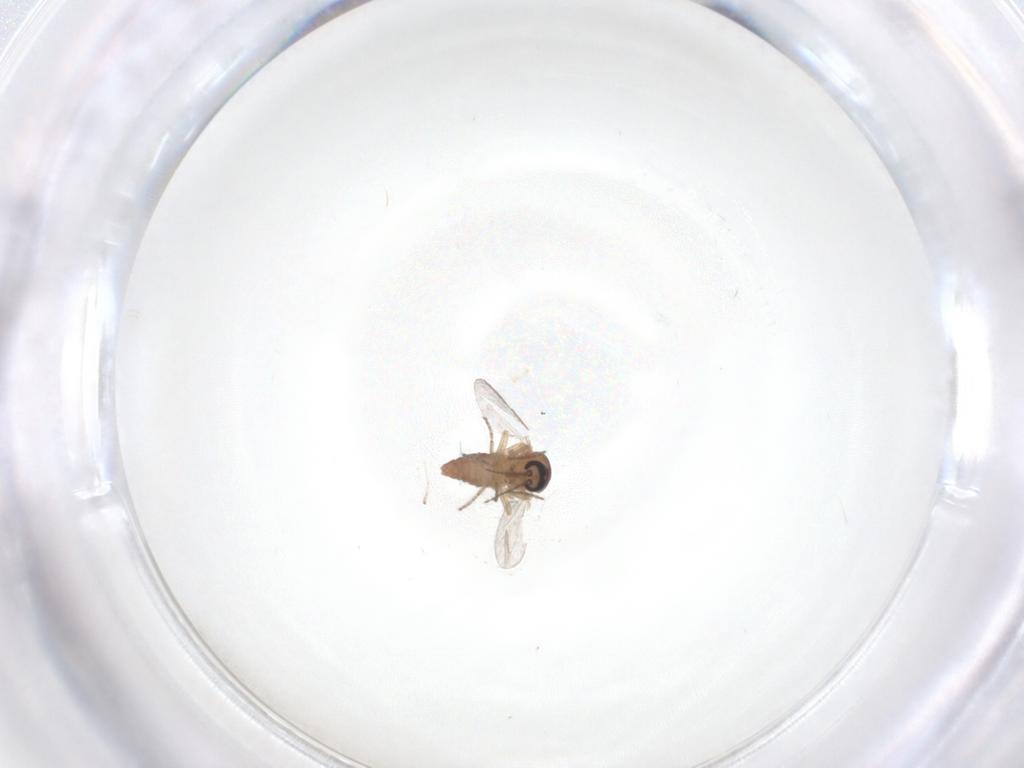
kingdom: Animalia
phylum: Arthropoda
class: Insecta
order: Diptera
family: Ceratopogonidae
